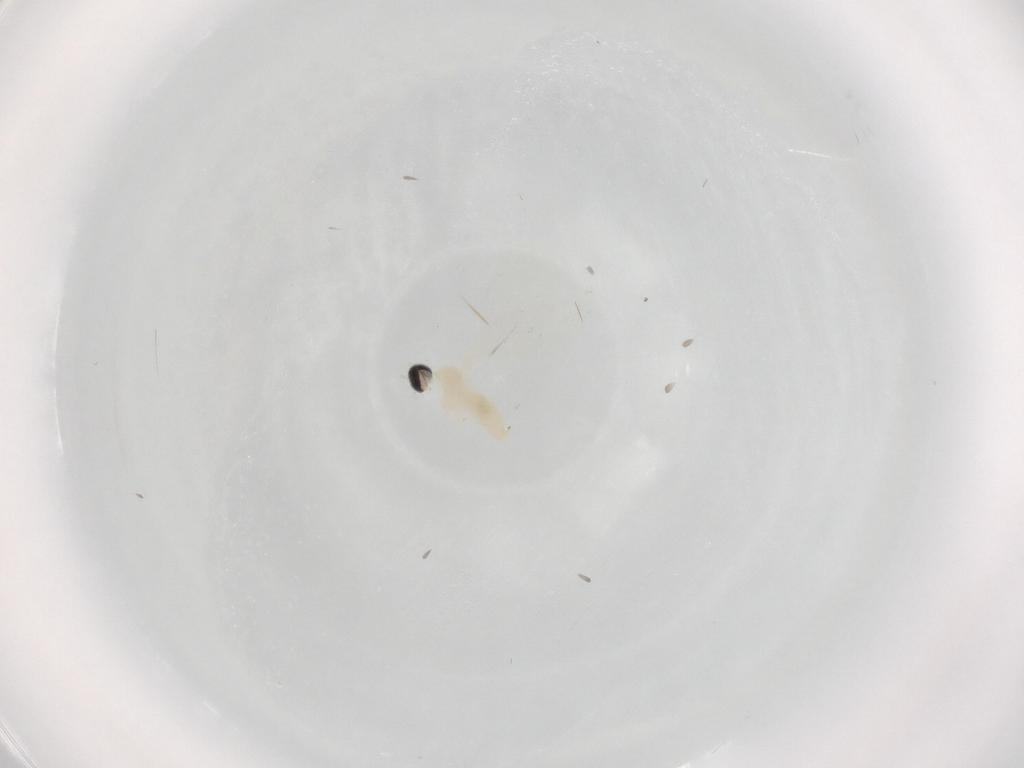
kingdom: Animalia
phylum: Arthropoda
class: Insecta
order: Diptera
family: Cecidomyiidae
